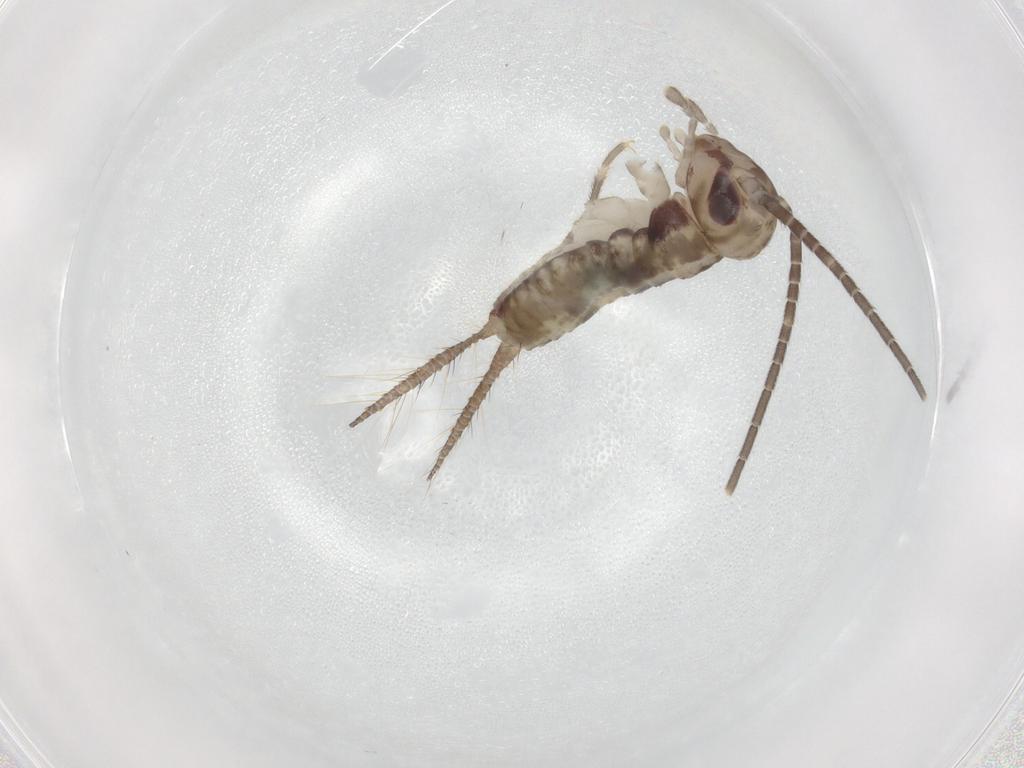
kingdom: Animalia
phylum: Arthropoda
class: Insecta
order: Orthoptera
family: Gryllidae
